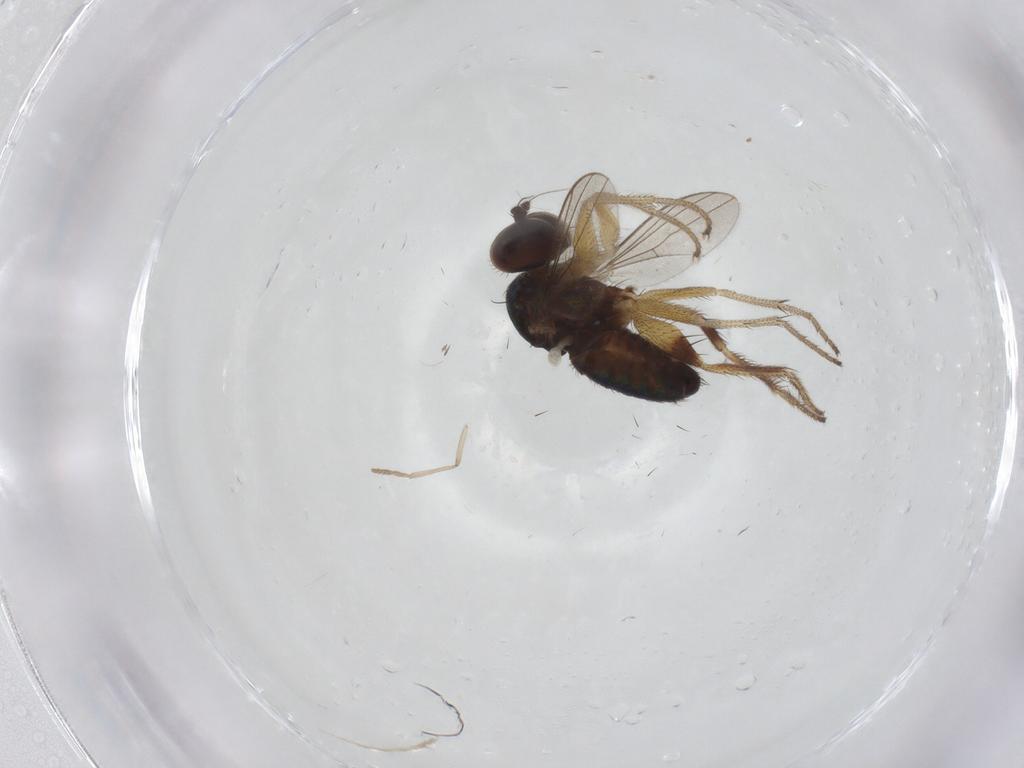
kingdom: Animalia
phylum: Arthropoda
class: Insecta
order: Diptera
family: Dolichopodidae
